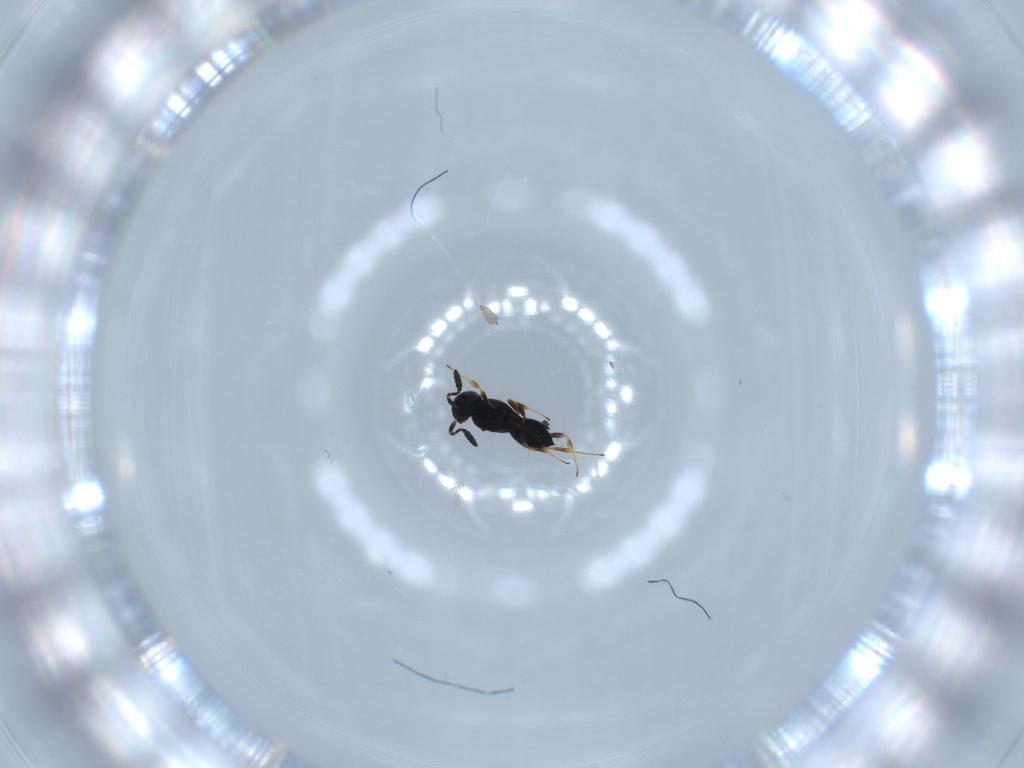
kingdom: Animalia
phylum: Arthropoda
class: Insecta
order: Hymenoptera
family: Scelionidae
